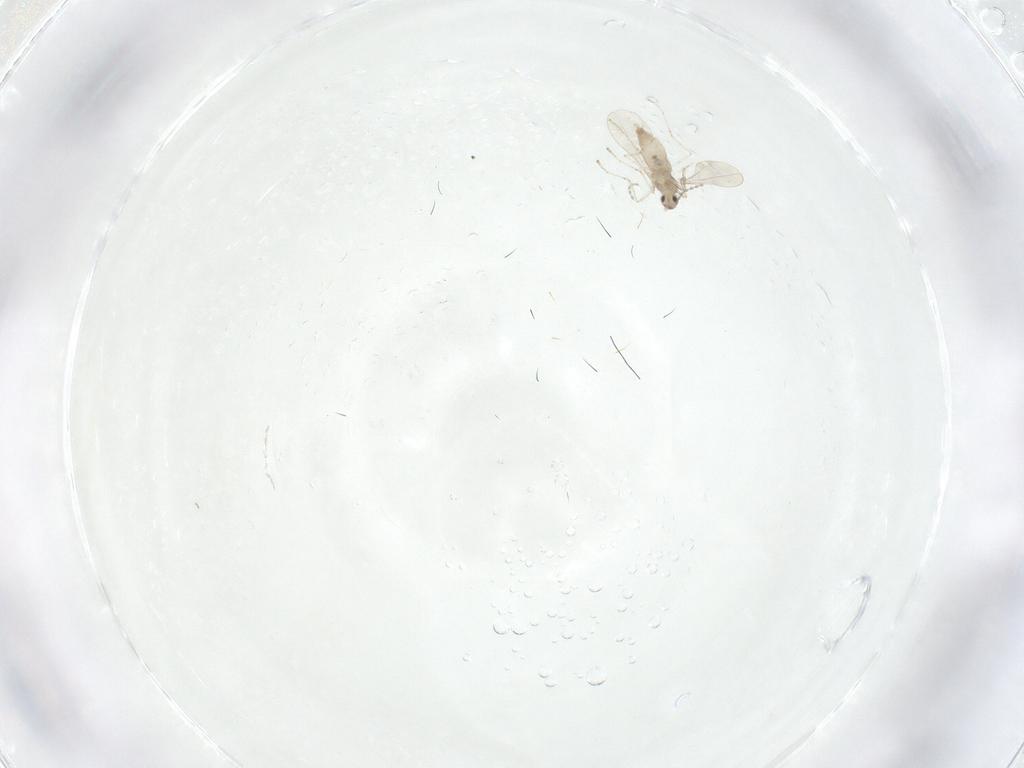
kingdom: Animalia
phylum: Arthropoda
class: Insecta
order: Diptera
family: Cecidomyiidae
